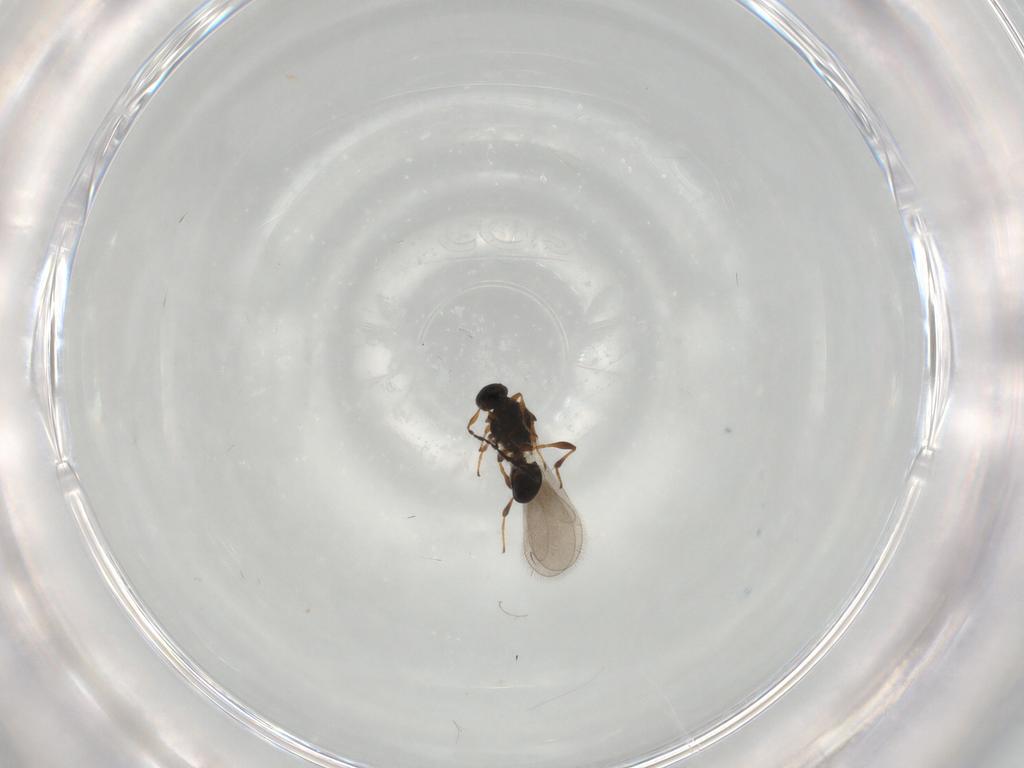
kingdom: Animalia
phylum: Arthropoda
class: Insecta
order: Hymenoptera
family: Platygastridae
